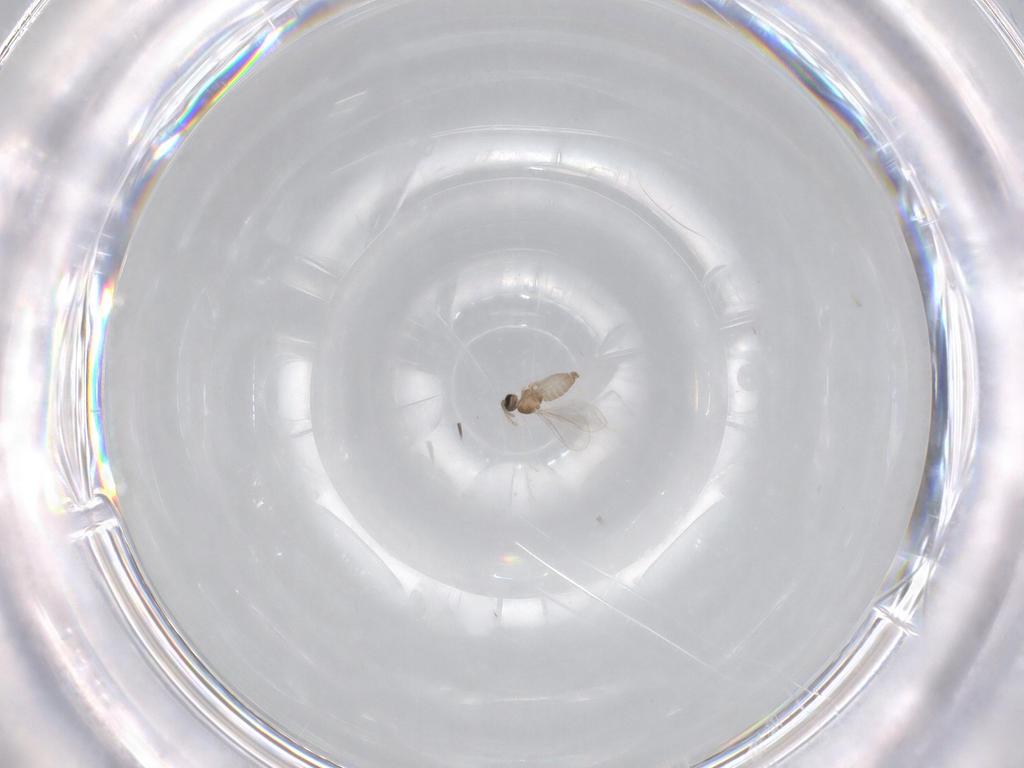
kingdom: Animalia
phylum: Arthropoda
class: Insecta
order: Diptera
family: Cecidomyiidae
